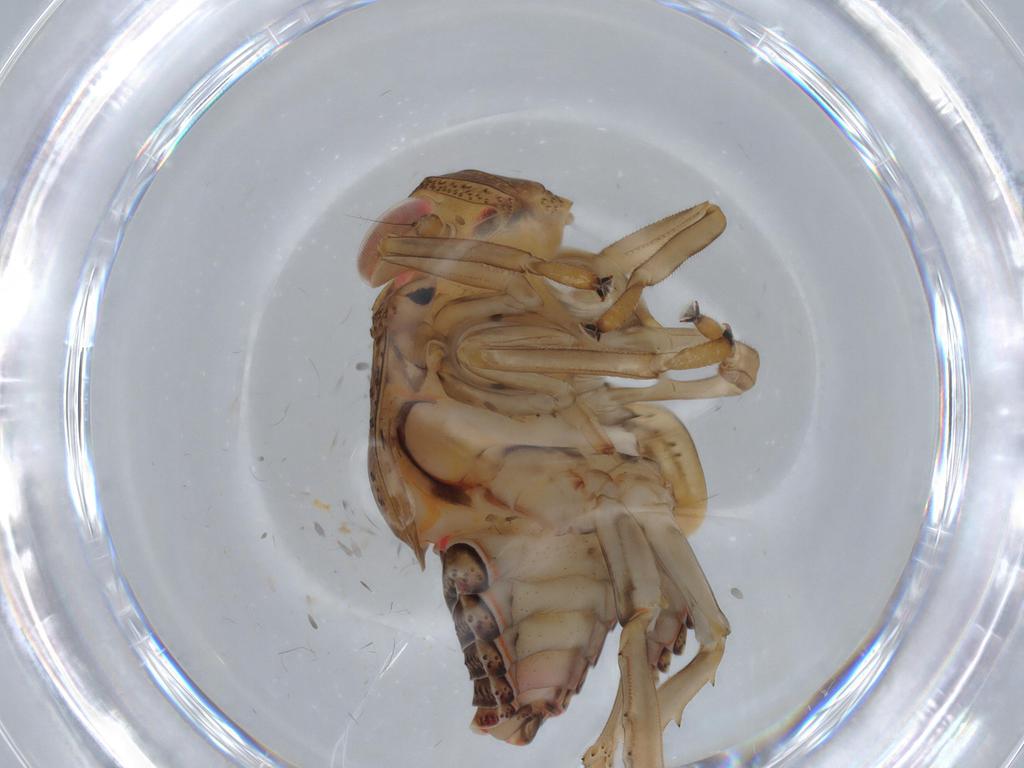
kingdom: Animalia
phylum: Arthropoda
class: Insecta
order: Hemiptera
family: Issidae
